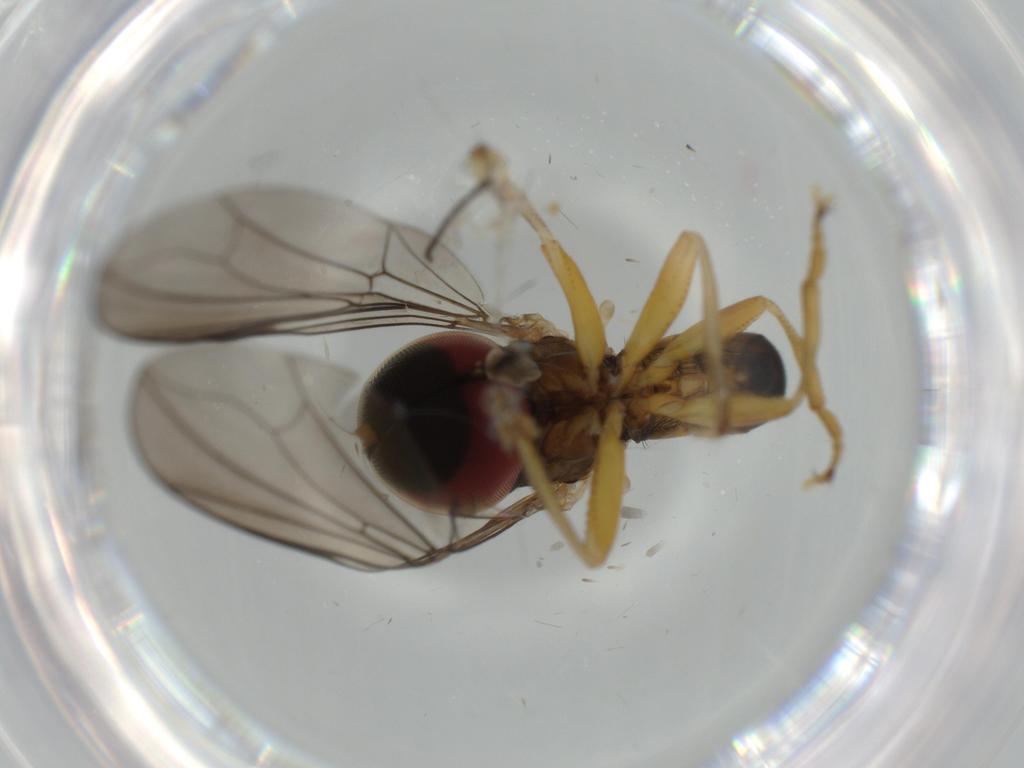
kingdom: Animalia
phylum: Arthropoda
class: Insecta
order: Diptera
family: Pipunculidae
